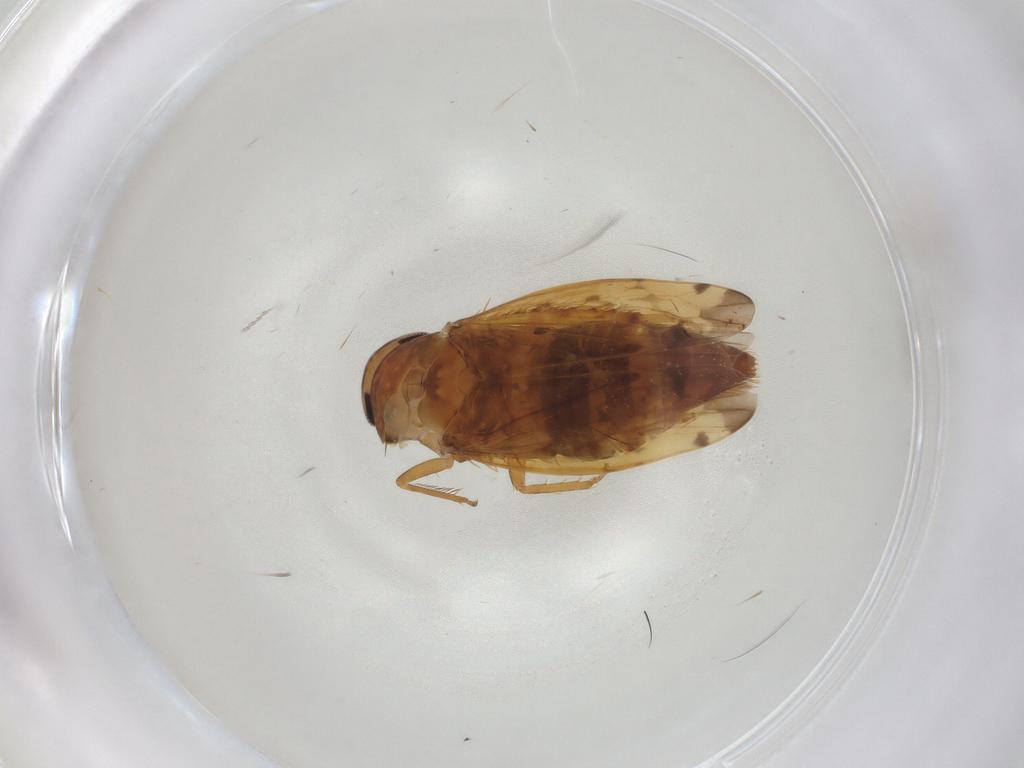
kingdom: Animalia
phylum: Arthropoda
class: Insecta
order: Hemiptera
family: Cicadellidae
